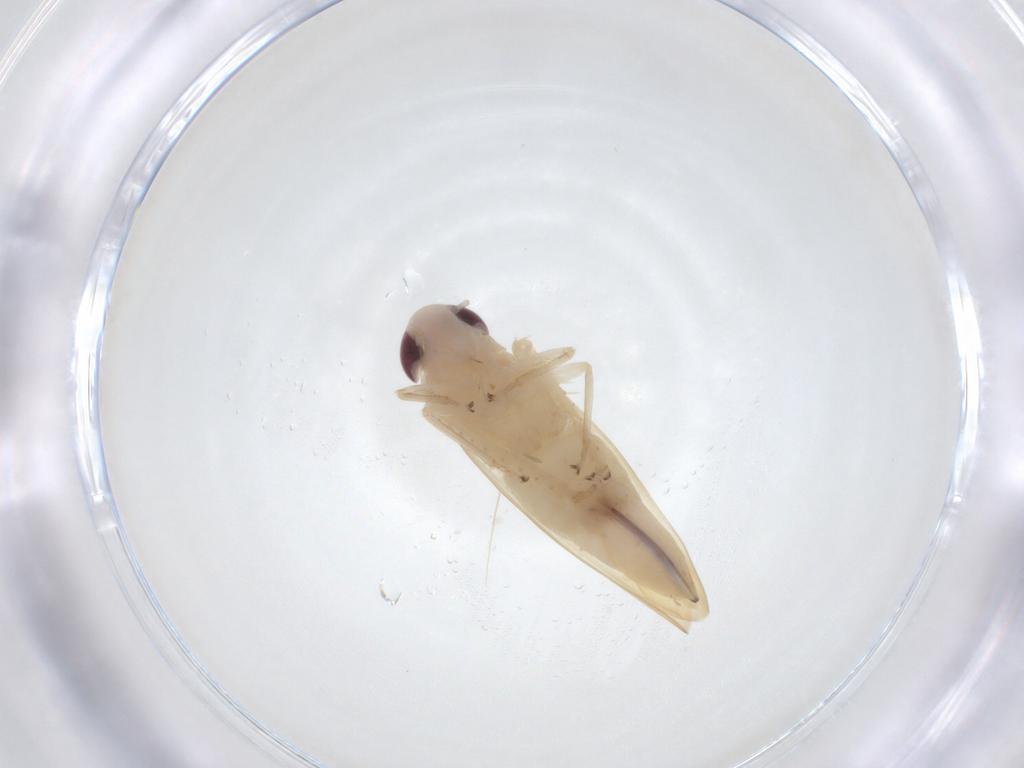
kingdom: Animalia
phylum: Arthropoda
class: Insecta
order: Hemiptera
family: Cicadellidae
